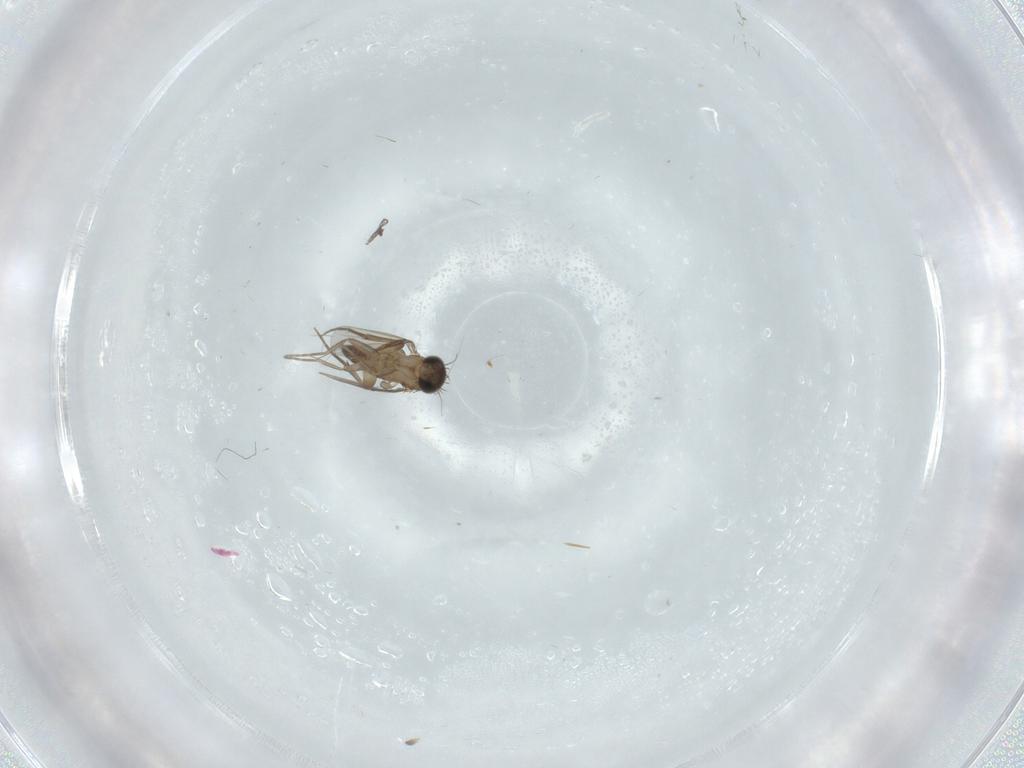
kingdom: Animalia
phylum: Arthropoda
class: Insecta
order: Diptera
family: Phoridae
